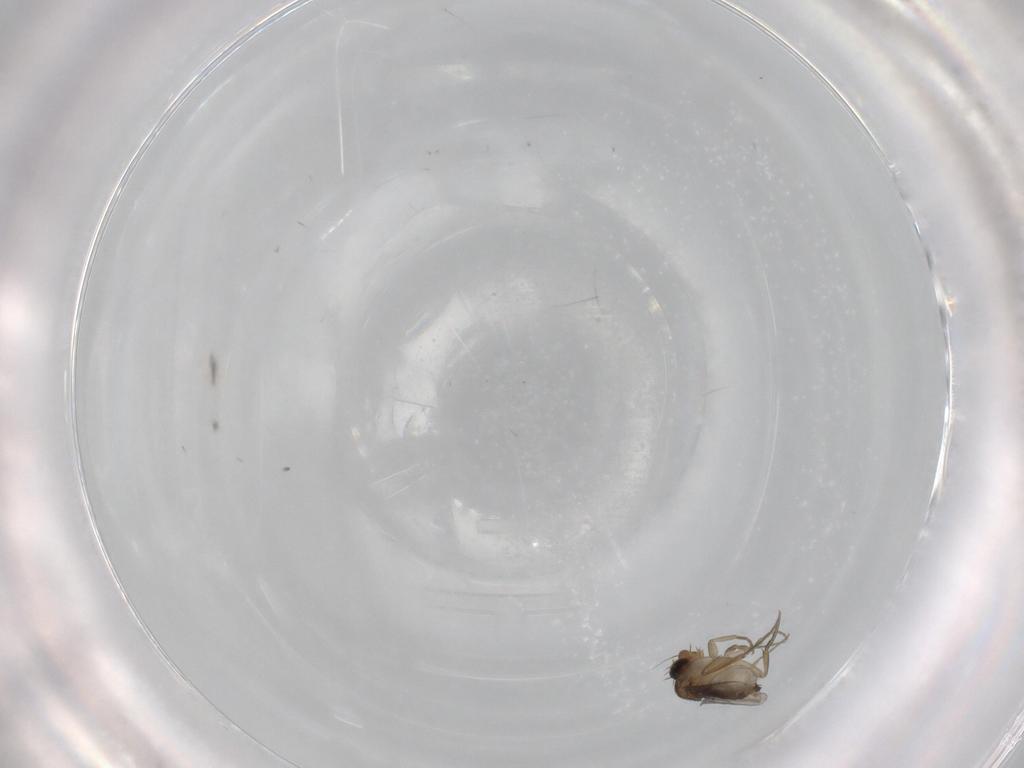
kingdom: Animalia
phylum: Arthropoda
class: Insecta
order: Diptera
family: Phoridae
